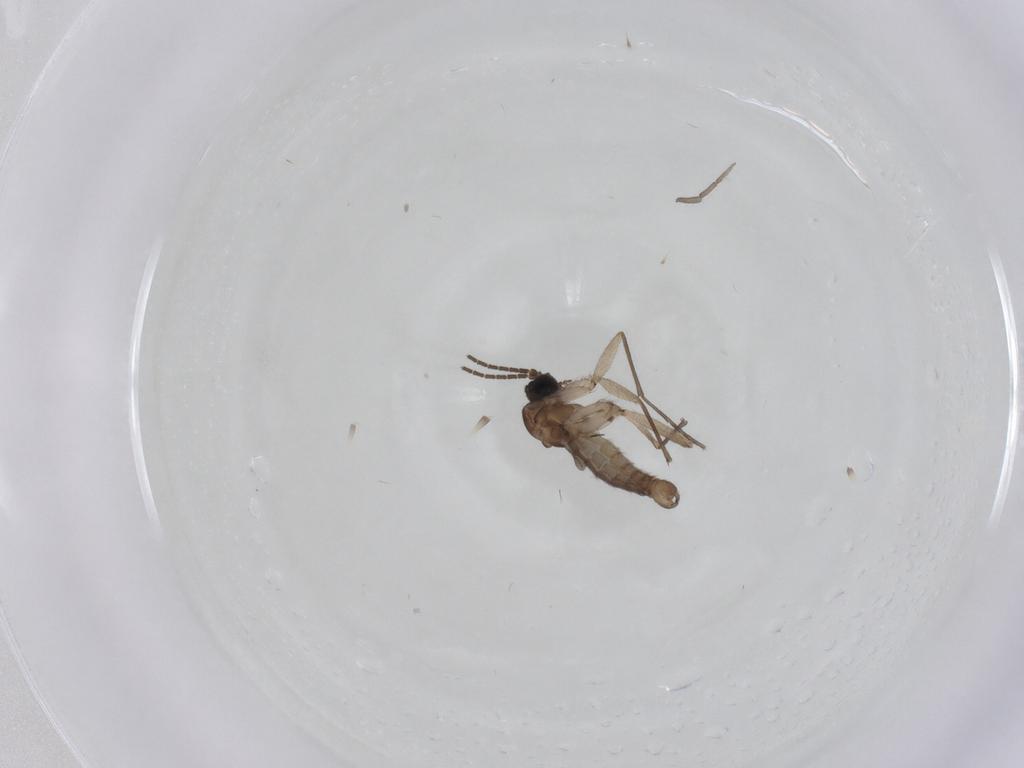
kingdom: Animalia
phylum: Arthropoda
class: Insecta
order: Diptera
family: Sciaridae
